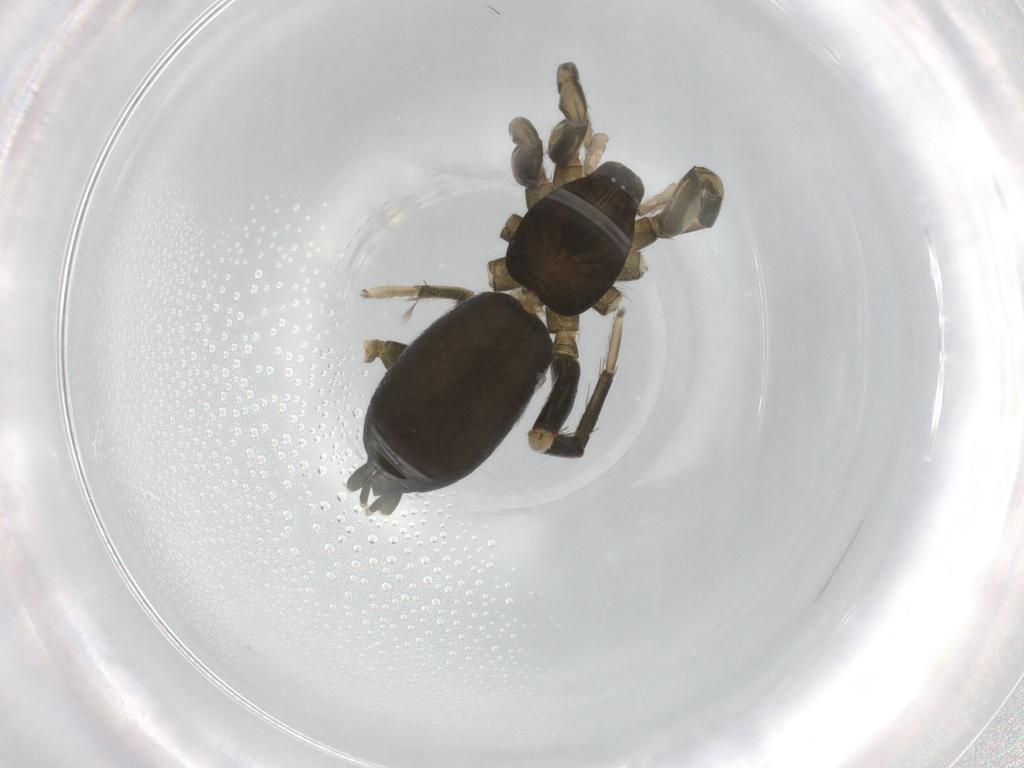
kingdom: Animalia
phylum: Arthropoda
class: Arachnida
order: Araneae
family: Gnaphosidae
